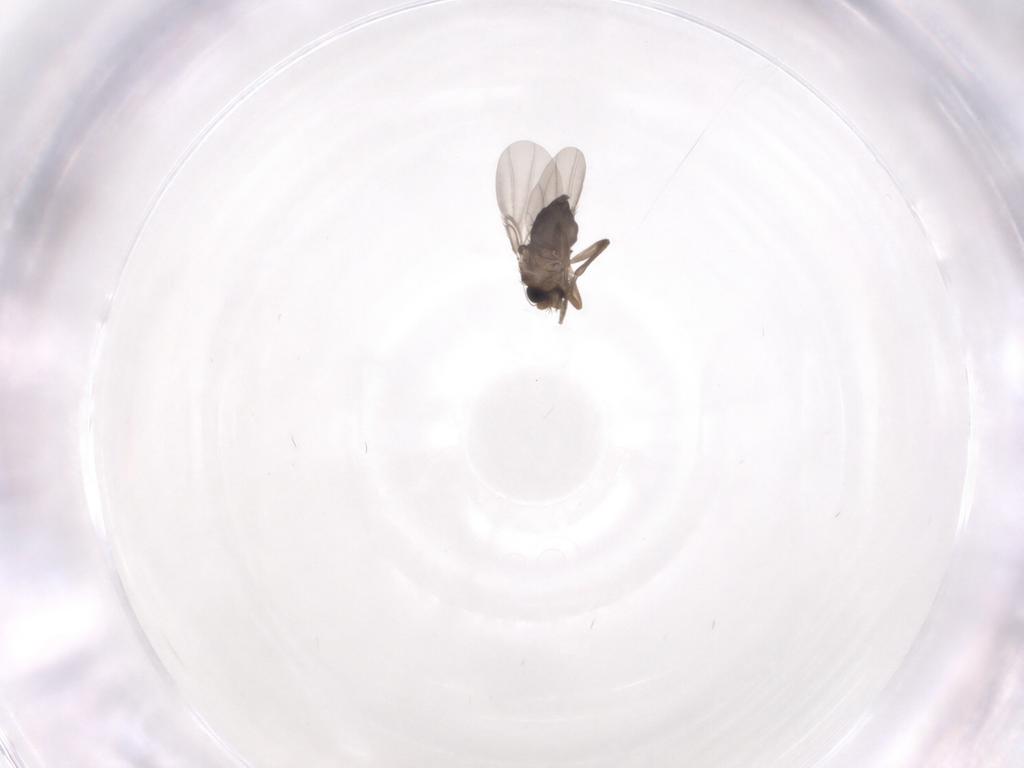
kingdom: Animalia
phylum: Arthropoda
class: Insecta
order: Diptera
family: Phoridae
